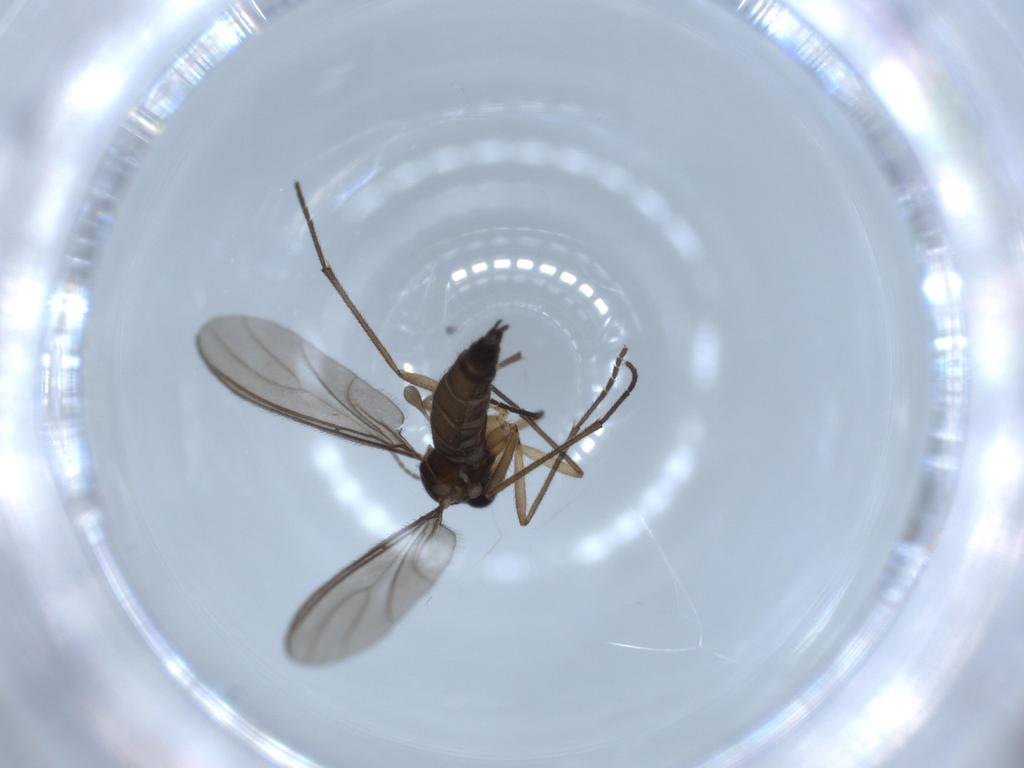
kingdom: Animalia
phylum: Arthropoda
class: Insecta
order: Diptera
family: Sciaridae
